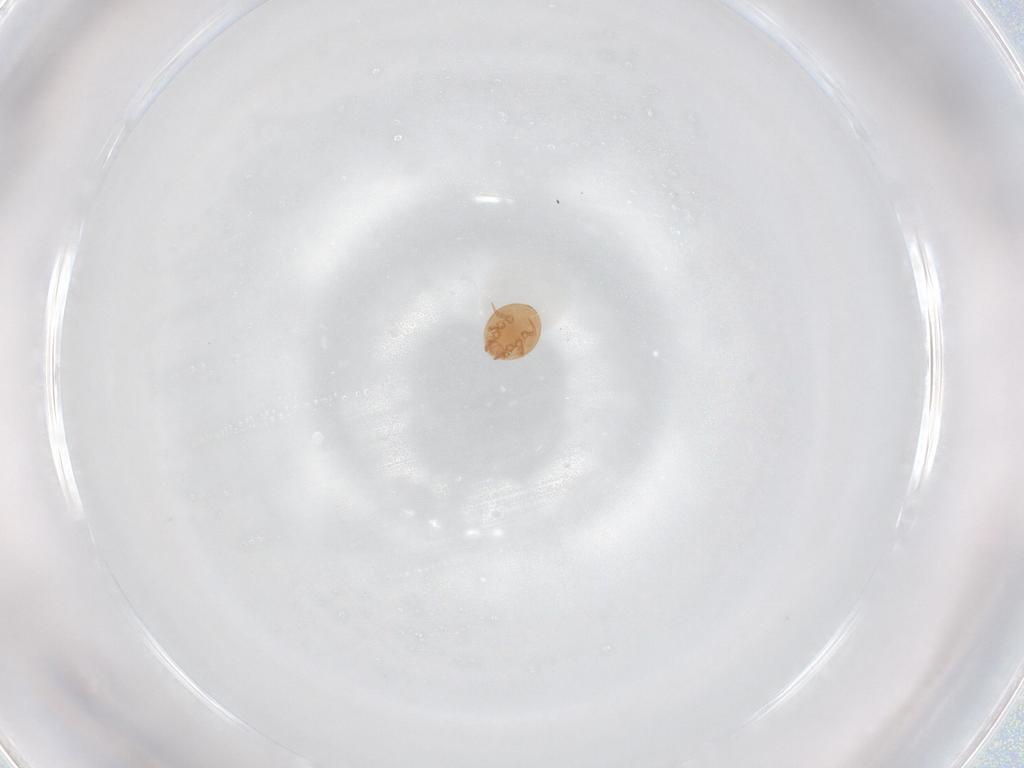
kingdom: Animalia
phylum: Arthropoda
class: Arachnida
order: Mesostigmata
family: Trematuridae
